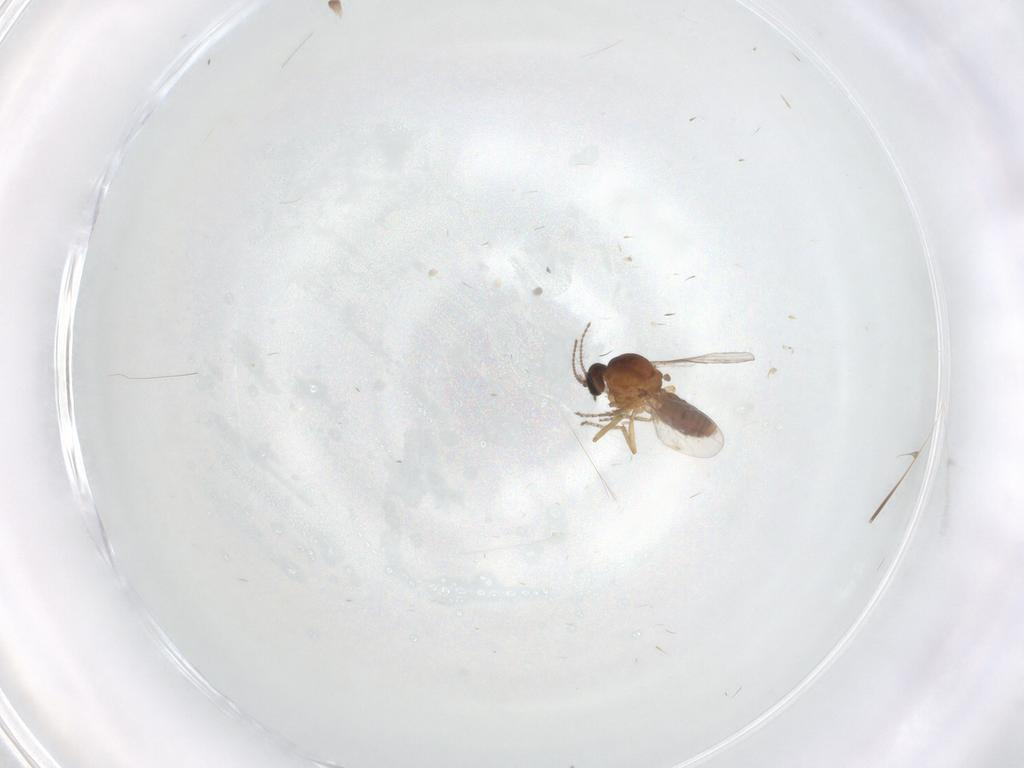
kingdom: Animalia
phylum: Arthropoda
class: Insecta
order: Diptera
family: Ceratopogonidae
